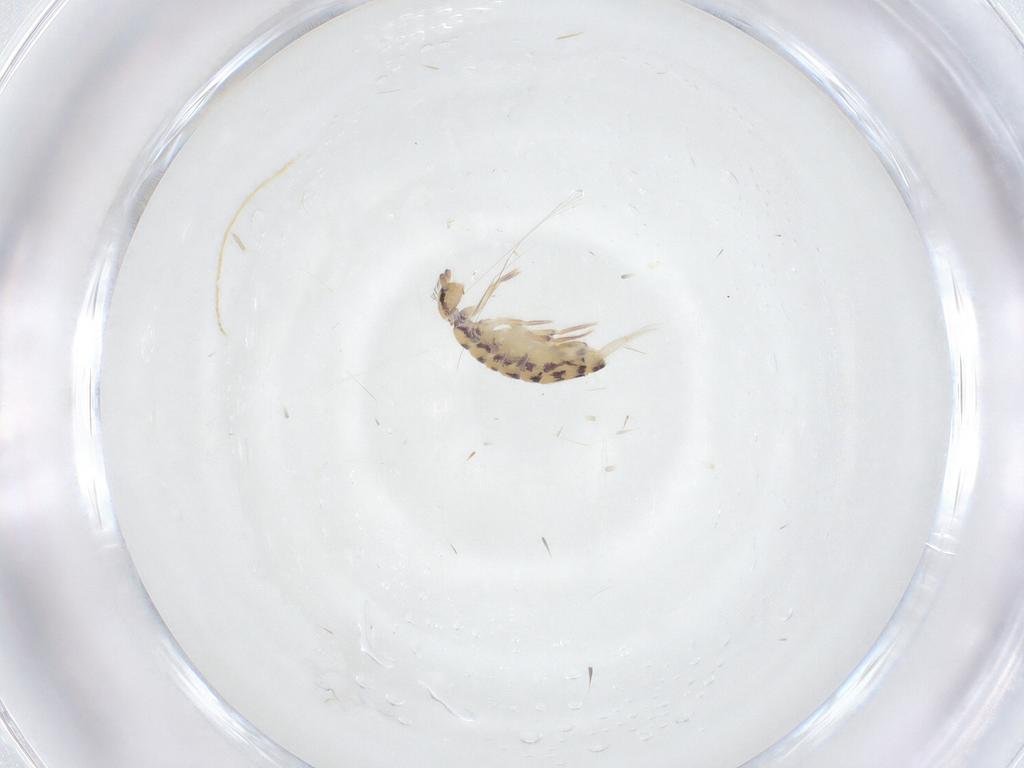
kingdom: Animalia
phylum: Arthropoda
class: Collembola
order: Entomobryomorpha
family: Entomobryidae
